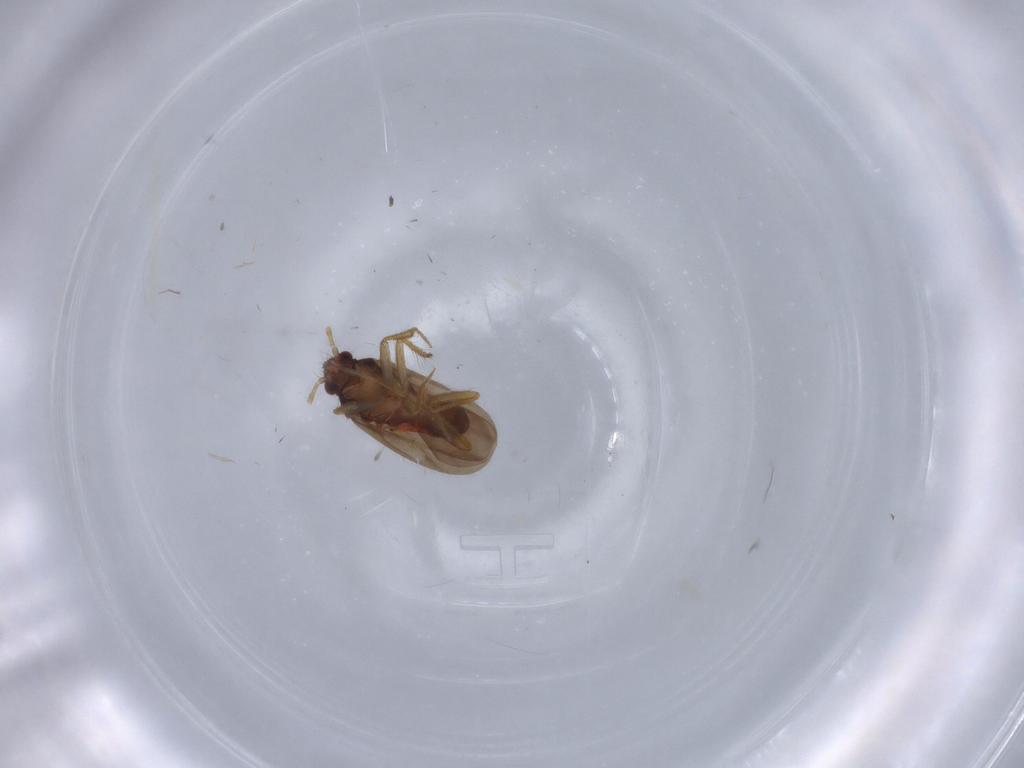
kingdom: Animalia
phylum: Arthropoda
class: Insecta
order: Hemiptera
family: Ceratocombidae
